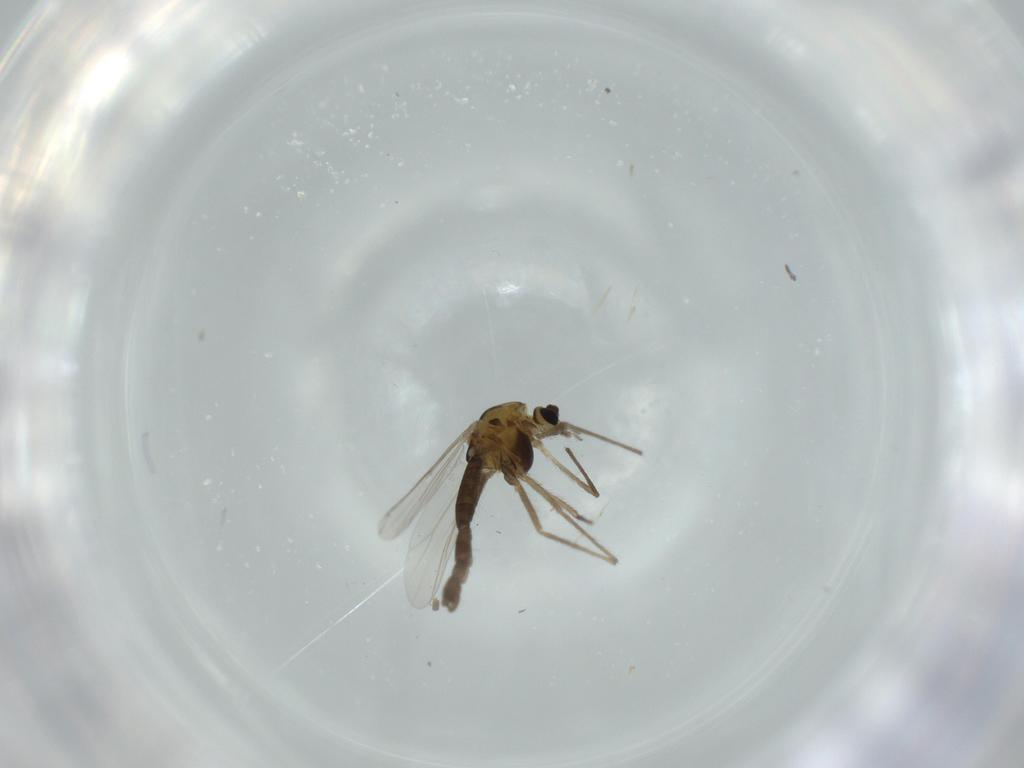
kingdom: Animalia
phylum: Arthropoda
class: Insecta
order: Diptera
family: Chironomidae
